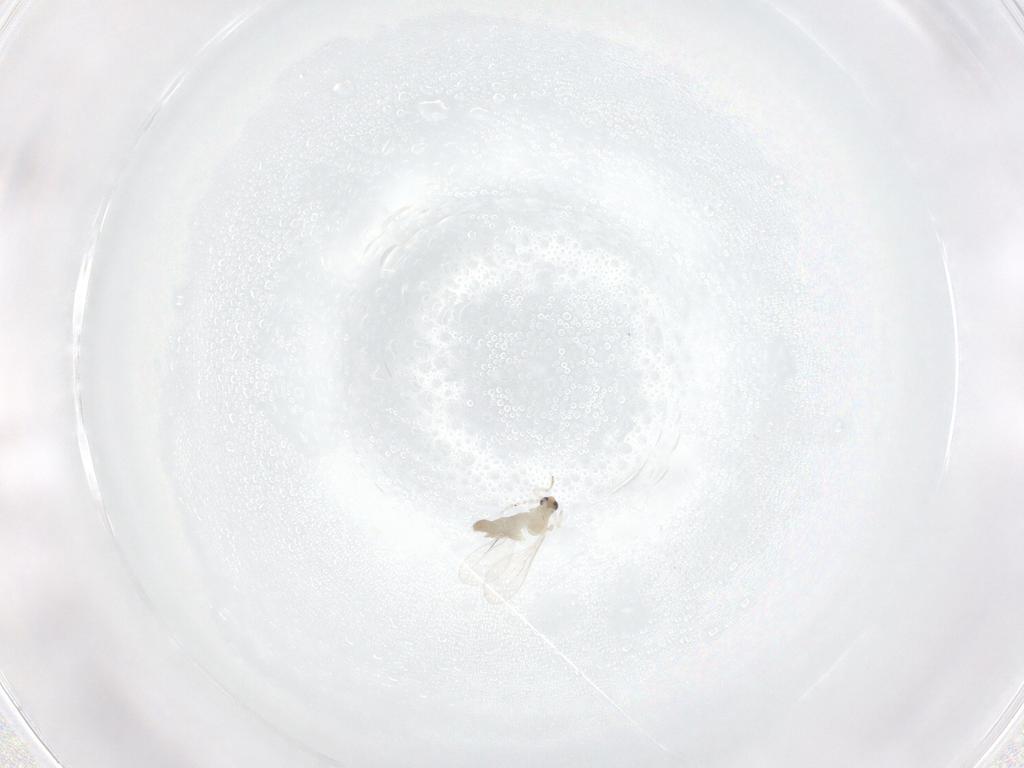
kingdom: Animalia
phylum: Arthropoda
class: Insecta
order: Diptera
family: Cecidomyiidae
